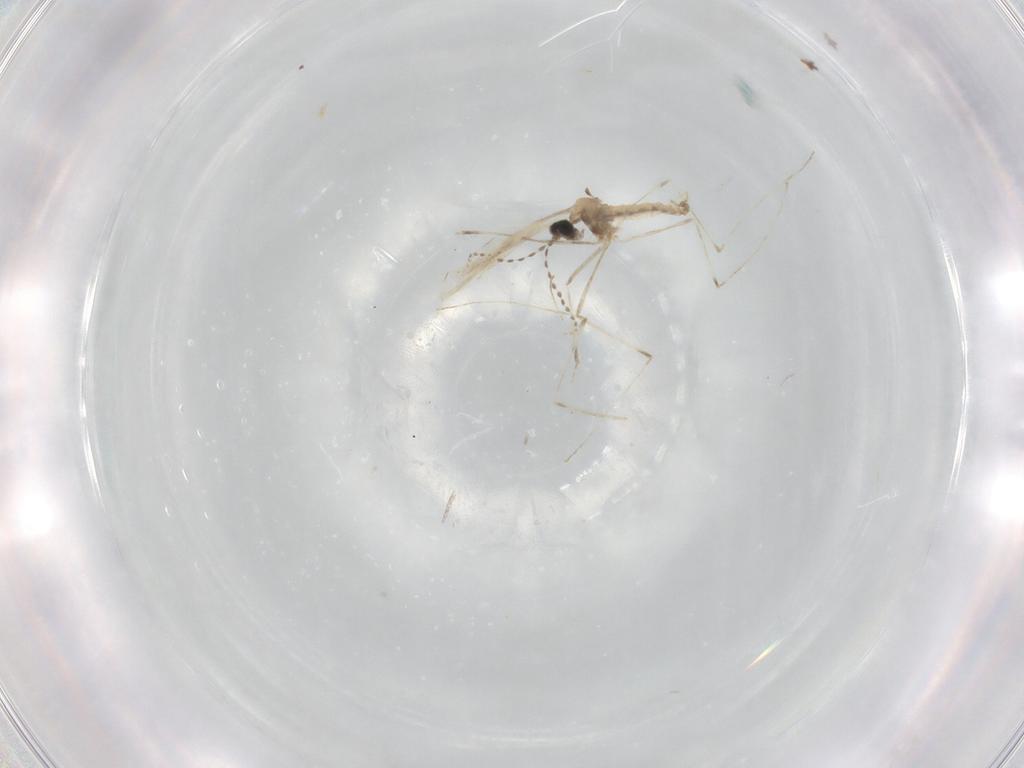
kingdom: Animalia
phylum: Arthropoda
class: Insecta
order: Diptera
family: Cecidomyiidae
